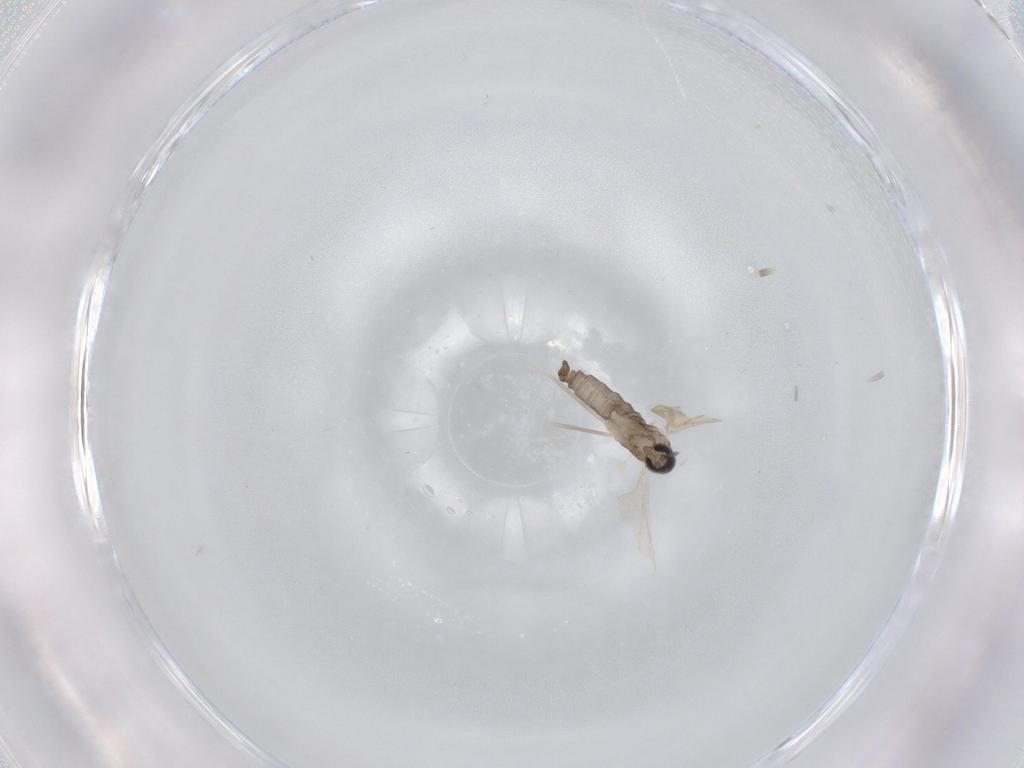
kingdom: Animalia
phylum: Arthropoda
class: Insecta
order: Diptera
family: Cecidomyiidae
